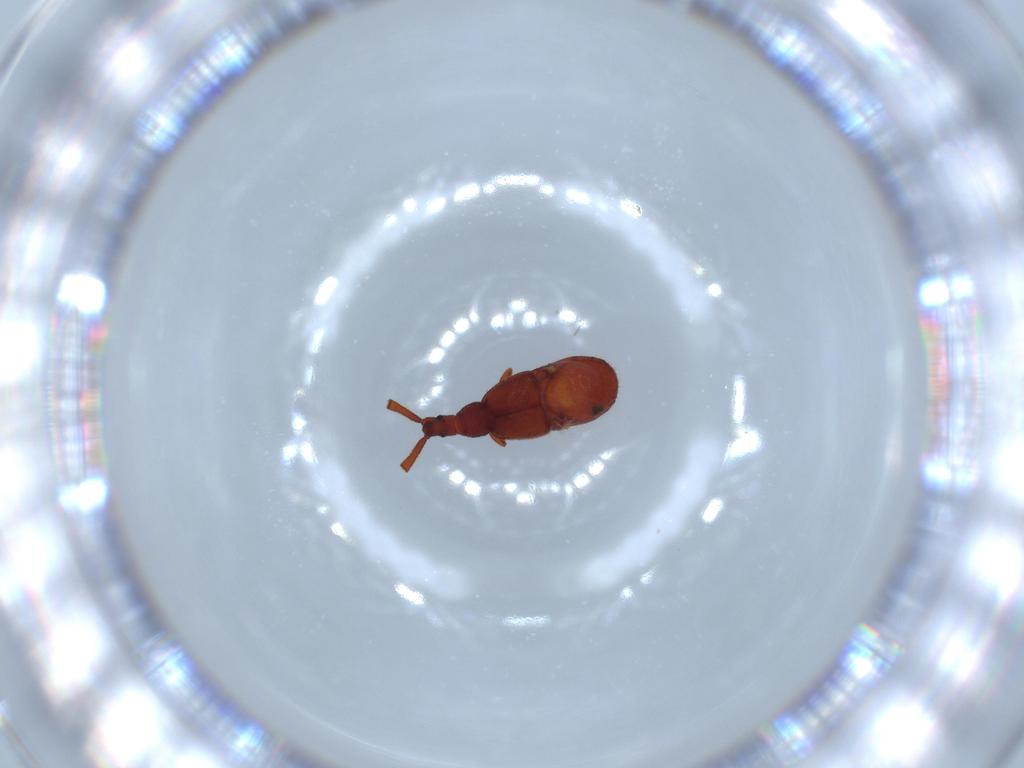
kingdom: Animalia
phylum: Arthropoda
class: Insecta
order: Coleoptera
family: Staphylinidae
